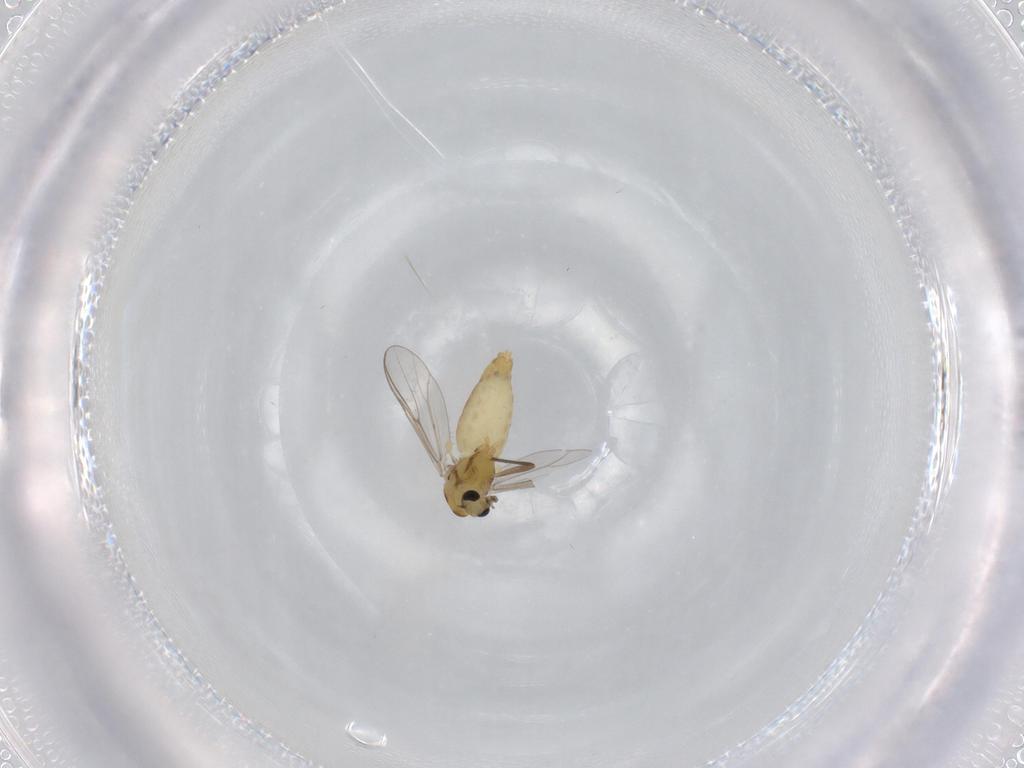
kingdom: Animalia
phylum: Arthropoda
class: Insecta
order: Diptera
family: Chironomidae
